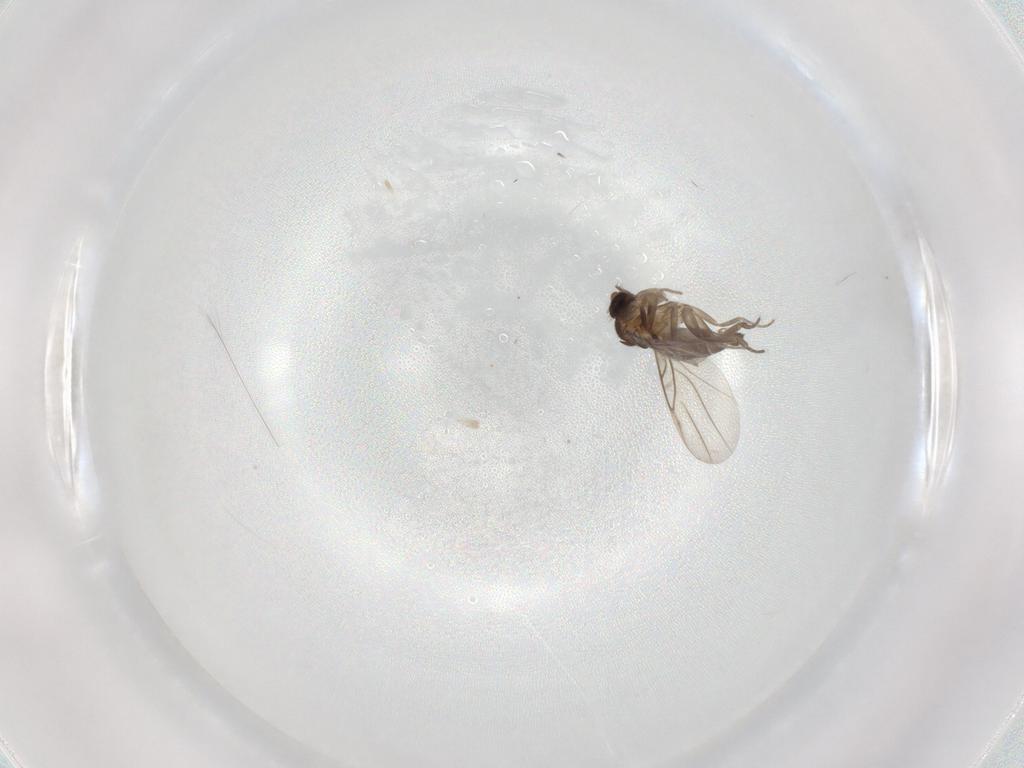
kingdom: Animalia
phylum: Arthropoda
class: Insecta
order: Diptera
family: Phoridae
